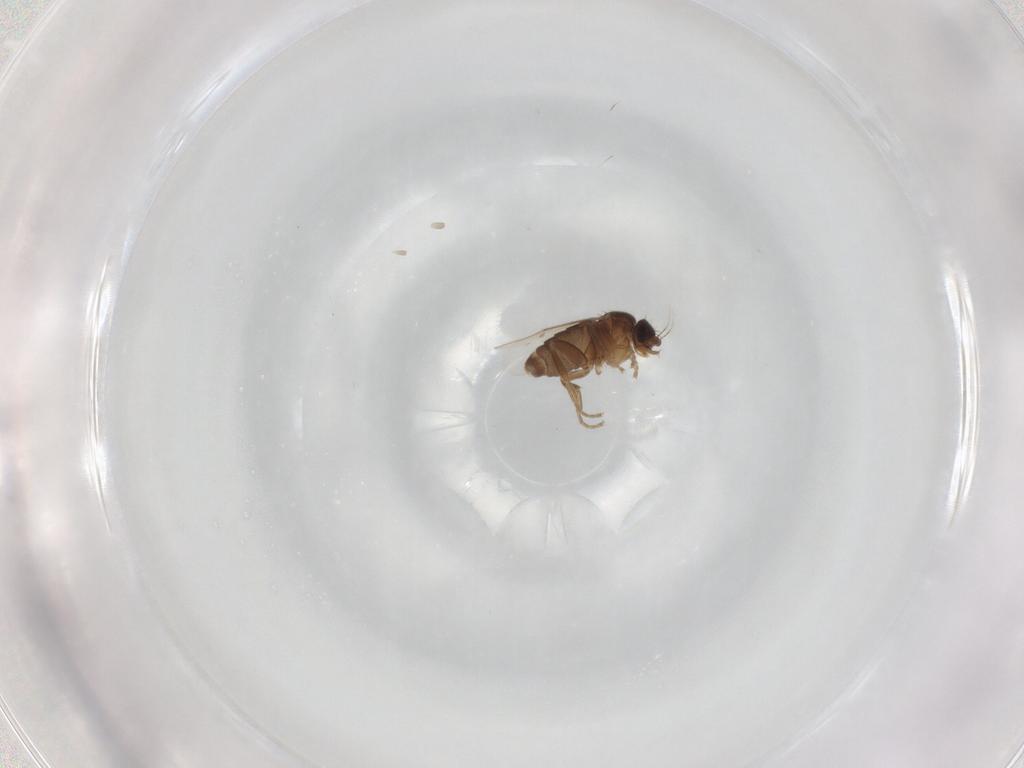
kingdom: Animalia
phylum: Arthropoda
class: Insecta
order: Diptera
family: Phoridae
